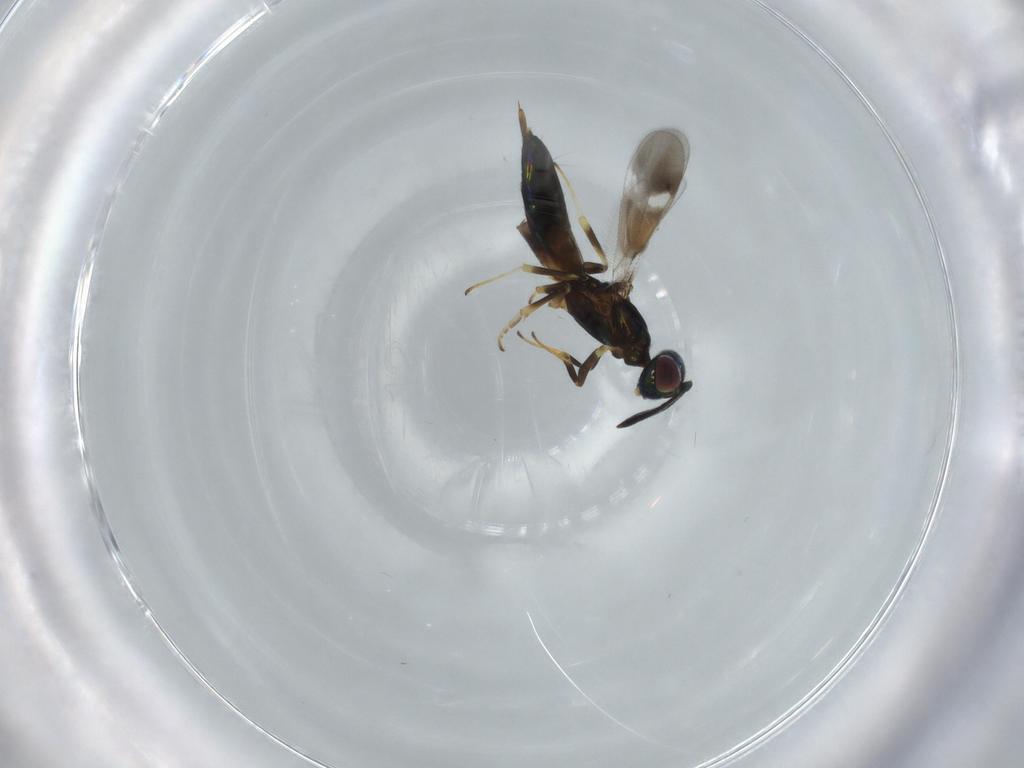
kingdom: Animalia
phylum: Arthropoda
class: Insecta
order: Hymenoptera
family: Eupelmidae
